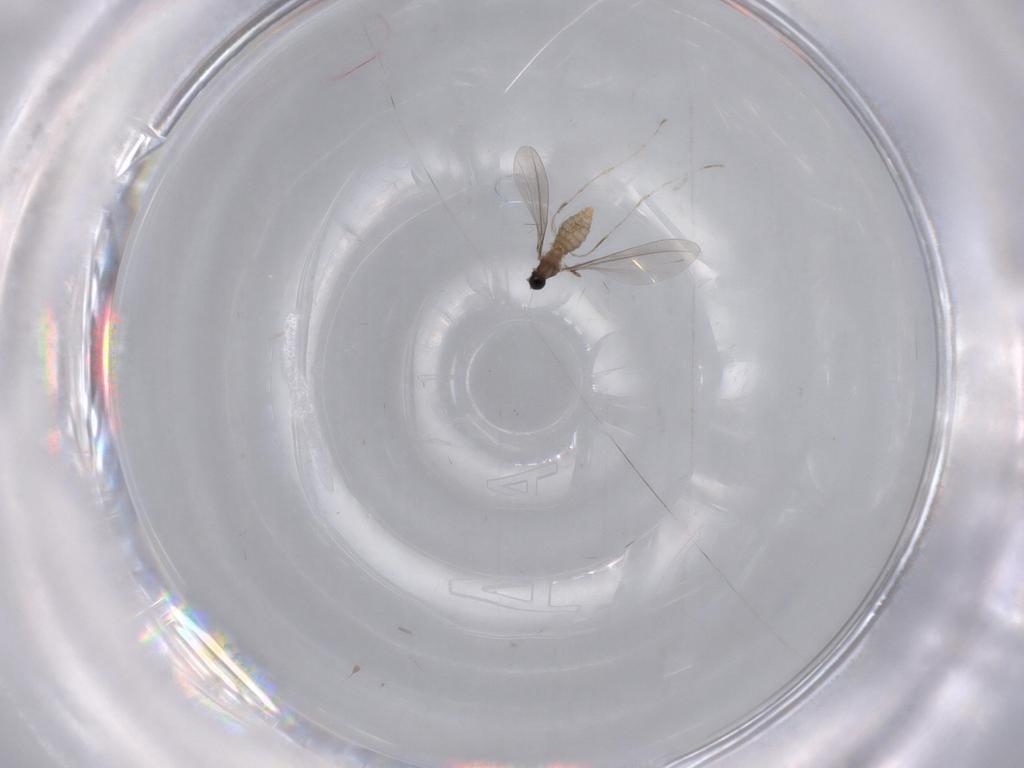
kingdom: Animalia
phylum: Arthropoda
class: Insecta
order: Diptera
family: Cecidomyiidae
